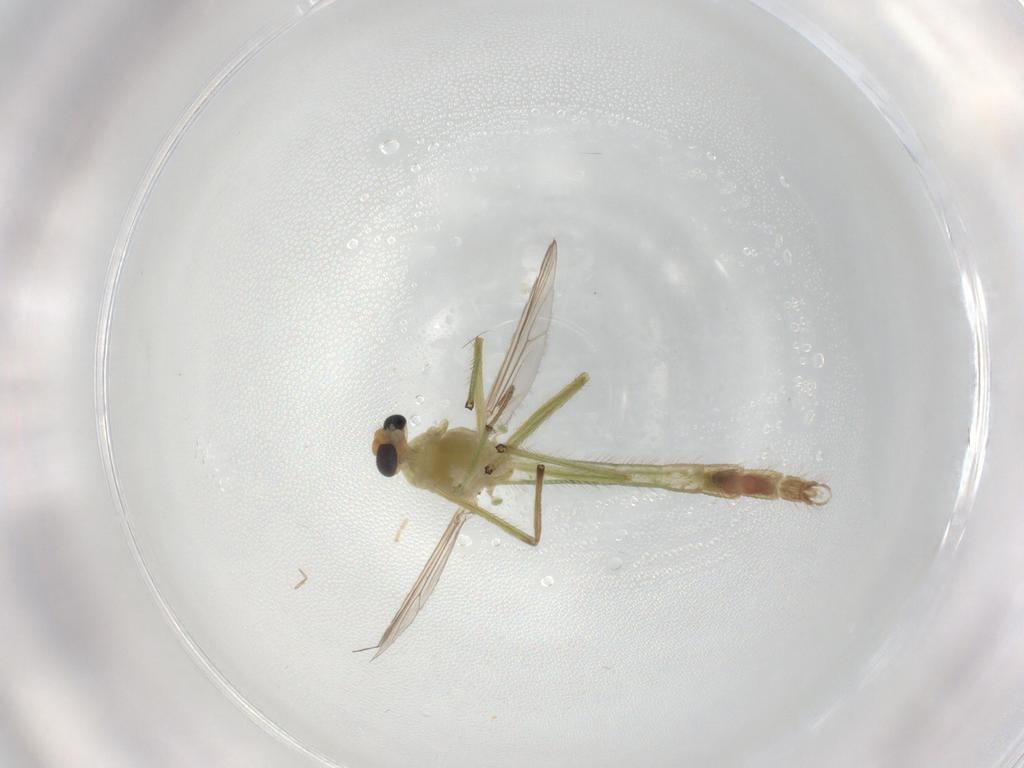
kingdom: Animalia
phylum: Arthropoda
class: Insecta
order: Diptera
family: Chironomidae
